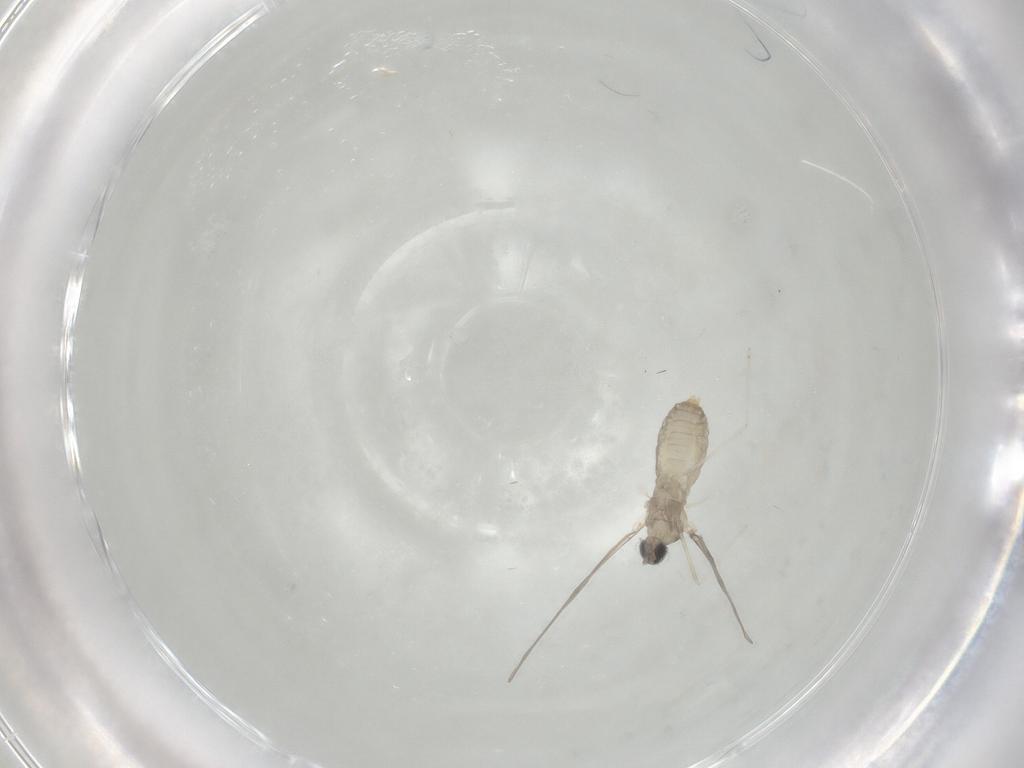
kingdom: Animalia
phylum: Arthropoda
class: Insecta
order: Diptera
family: Cecidomyiidae
